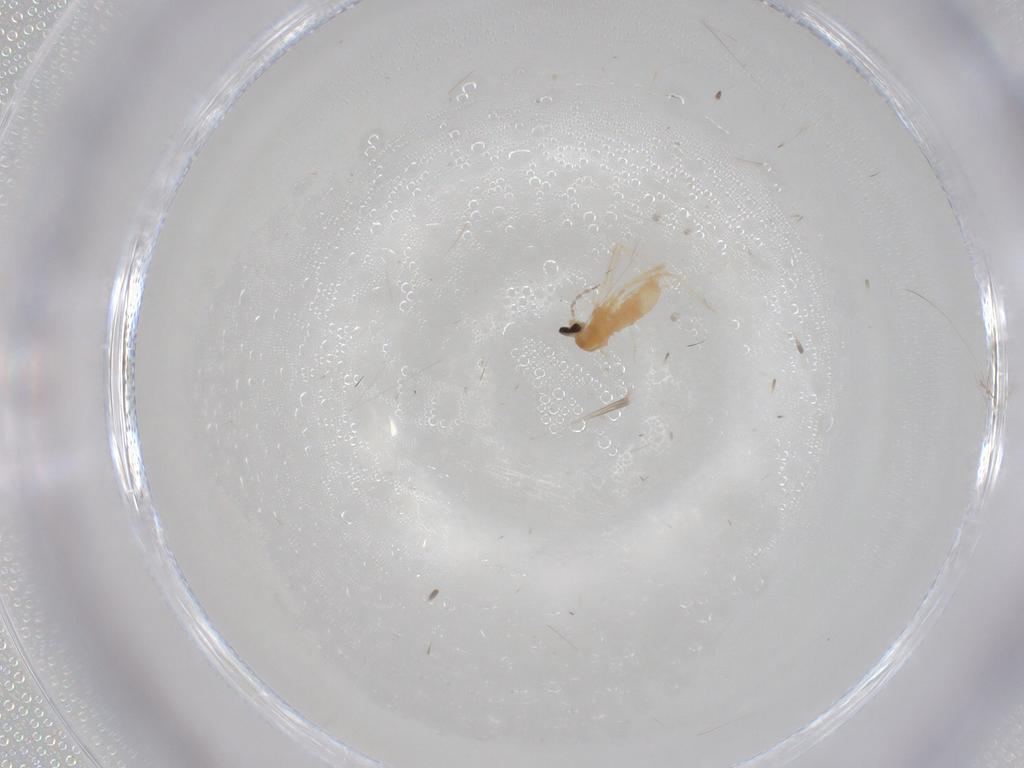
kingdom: Animalia
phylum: Arthropoda
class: Insecta
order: Diptera
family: Cecidomyiidae
